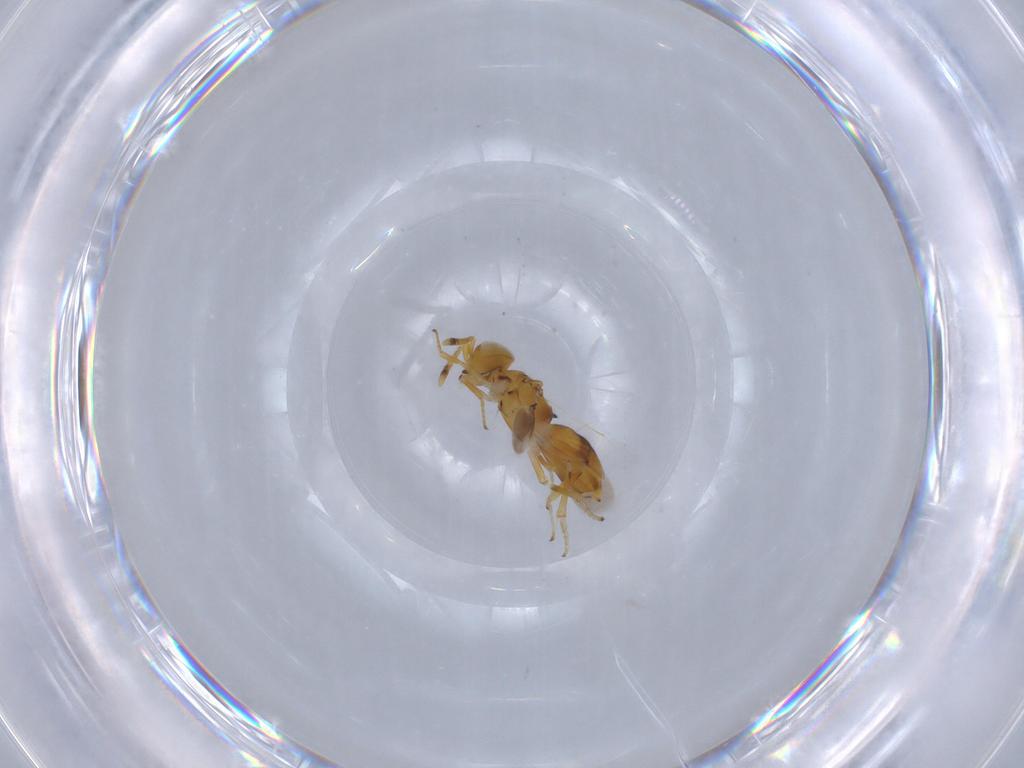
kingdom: Animalia
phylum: Arthropoda
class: Insecta
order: Hymenoptera
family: Encyrtidae
